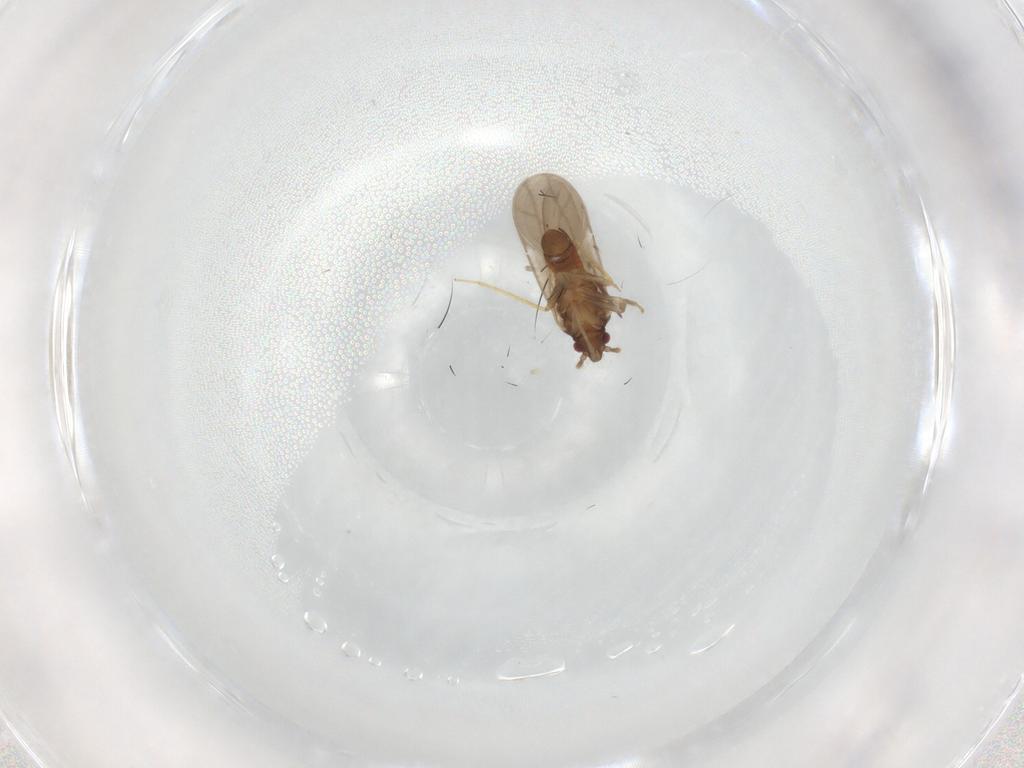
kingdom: Animalia
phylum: Arthropoda
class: Insecta
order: Hemiptera
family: Ceratocombidae
